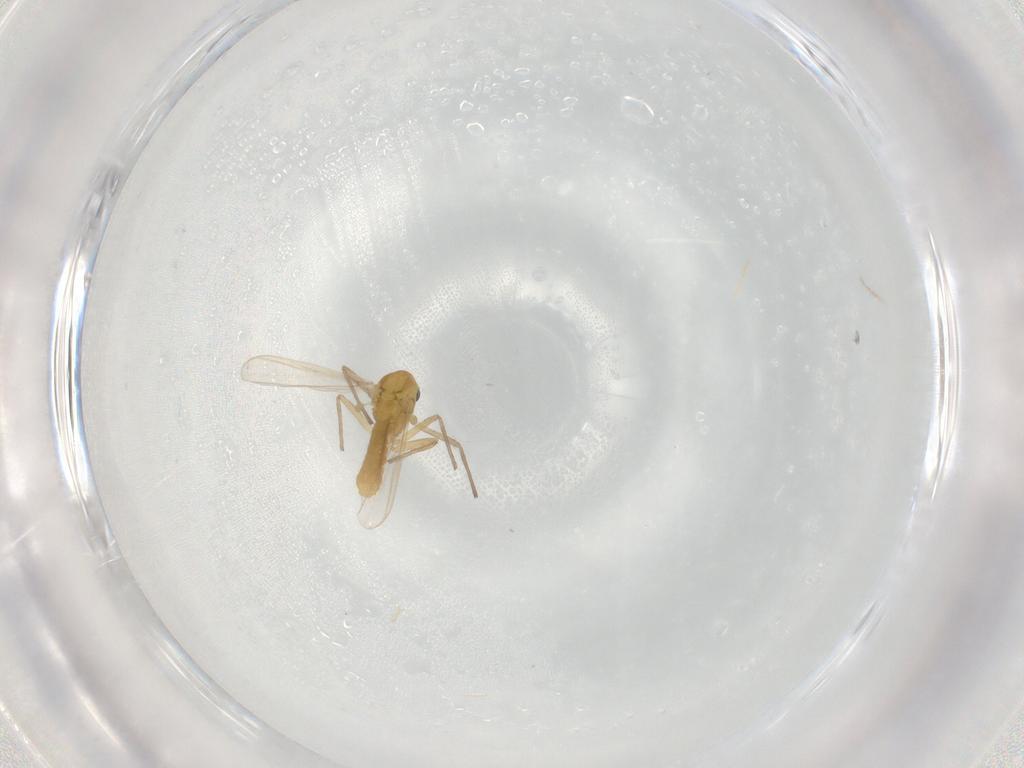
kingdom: Animalia
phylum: Arthropoda
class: Insecta
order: Diptera
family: Chironomidae
